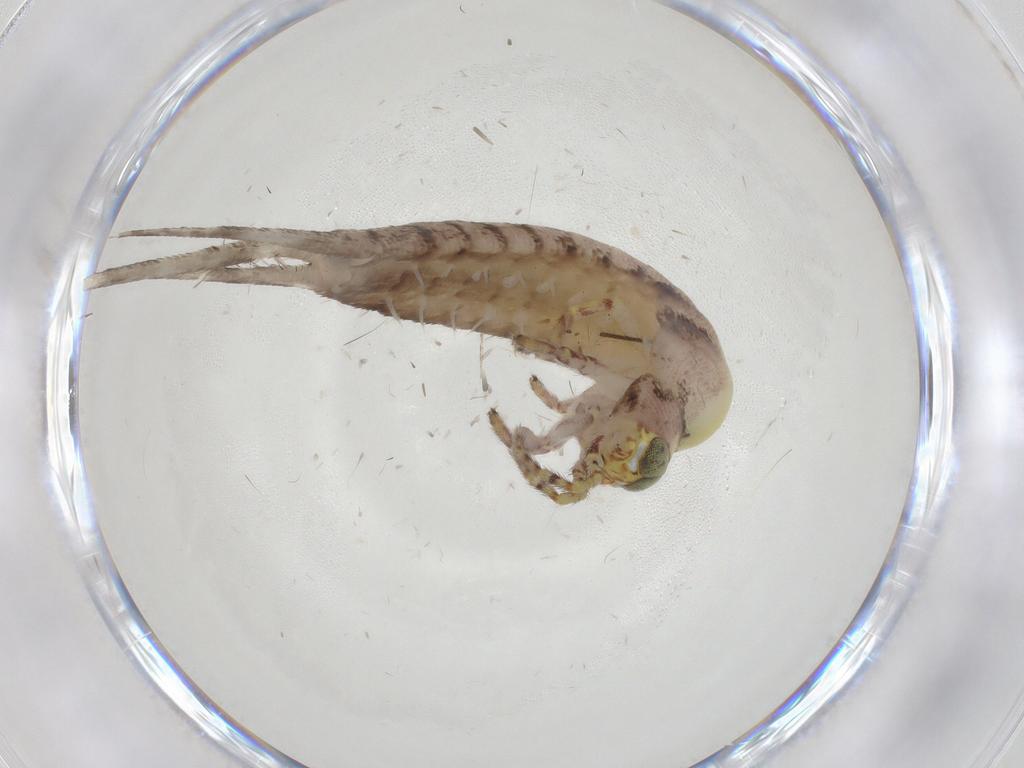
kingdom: Animalia
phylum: Arthropoda
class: Insecta
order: Archaeognatha
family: Machilidae
